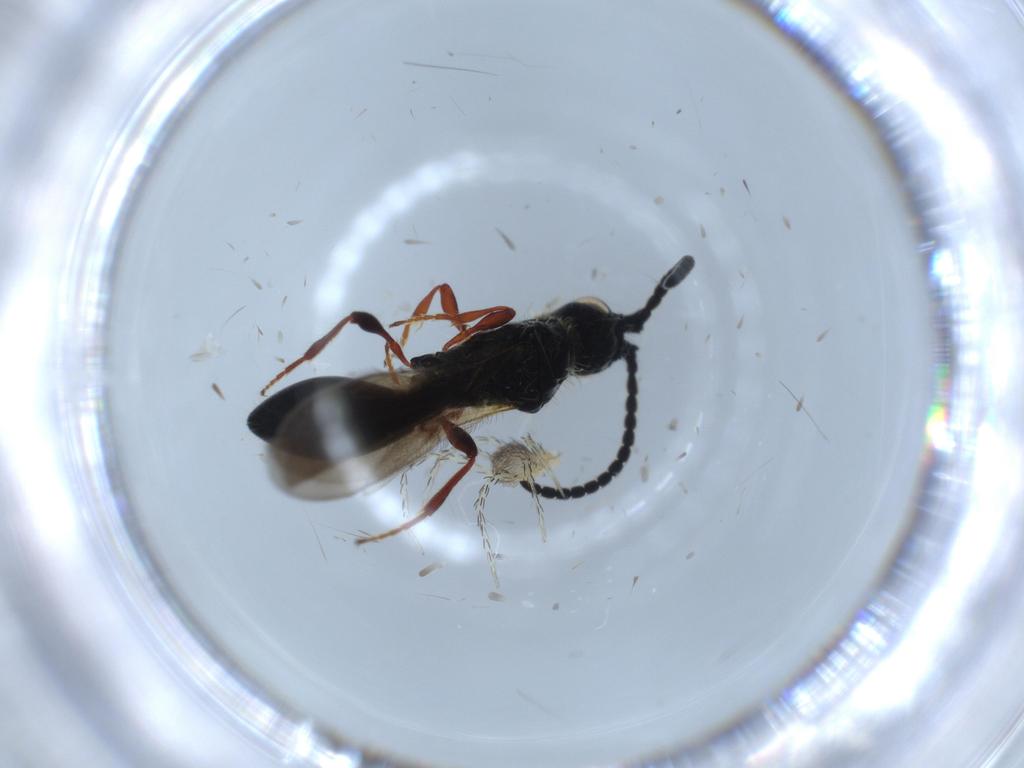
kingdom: Animalia
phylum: Arthropoda
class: Arachnida
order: Trombidiformes
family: Erythraeidae
